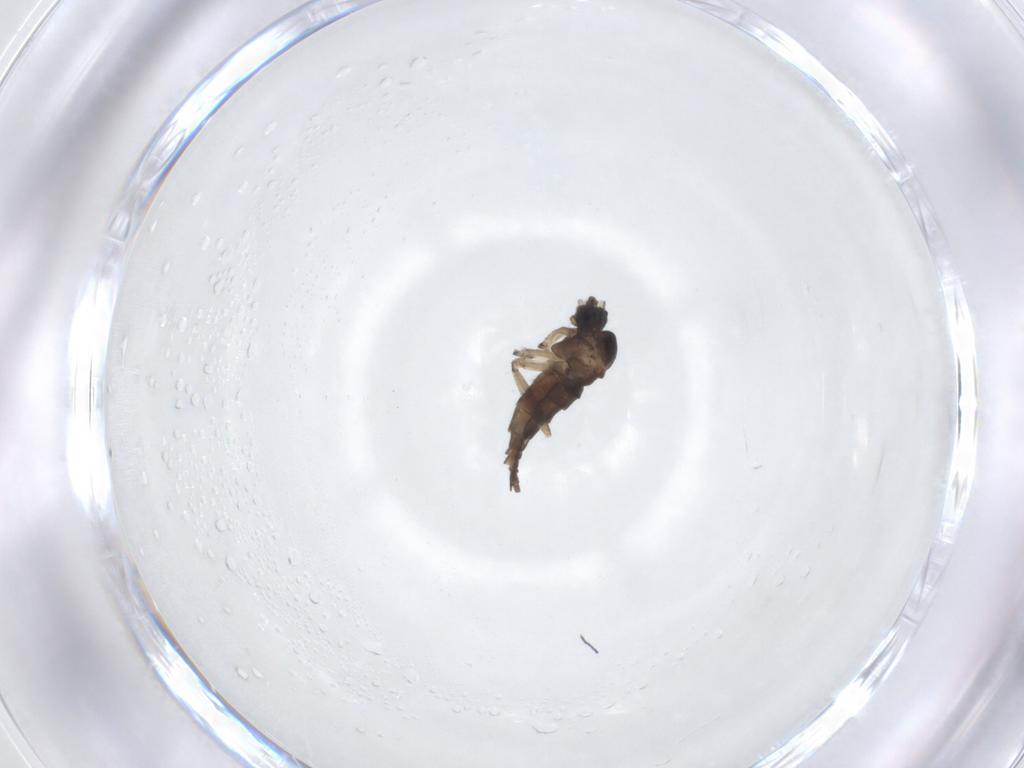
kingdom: Animalia
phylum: Arthropoda
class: Insecta
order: Diptera
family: Sciaridae
